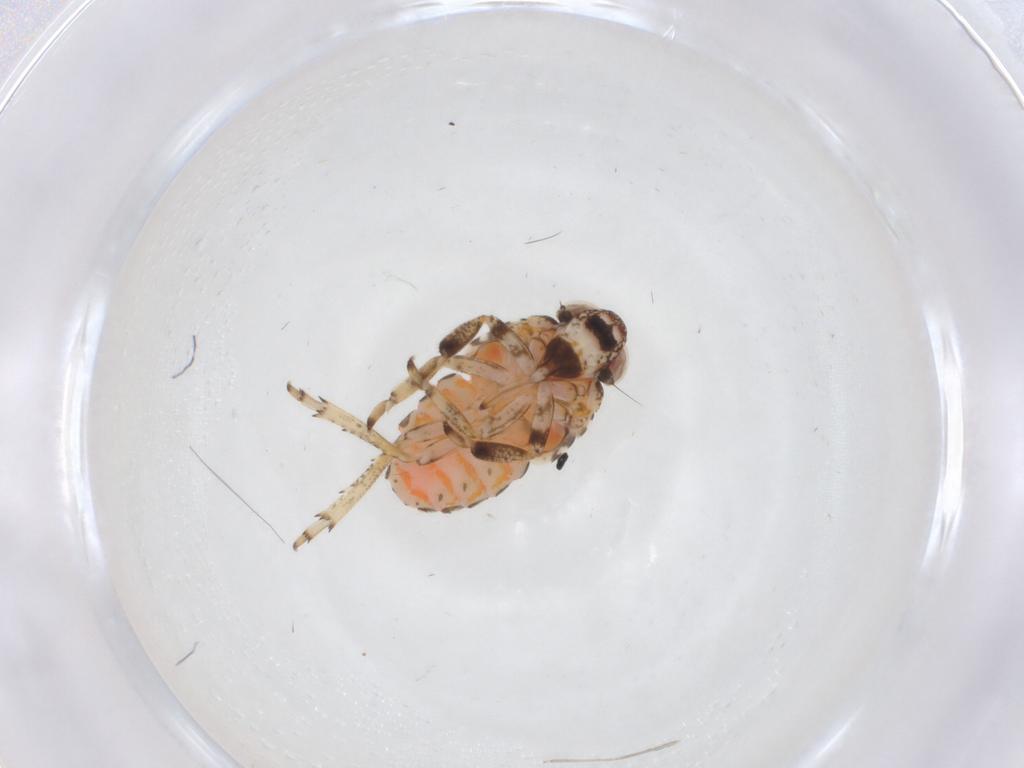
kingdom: Animalia
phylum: Arthropoda
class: Insecta
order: Hemiptera
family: Issidae
